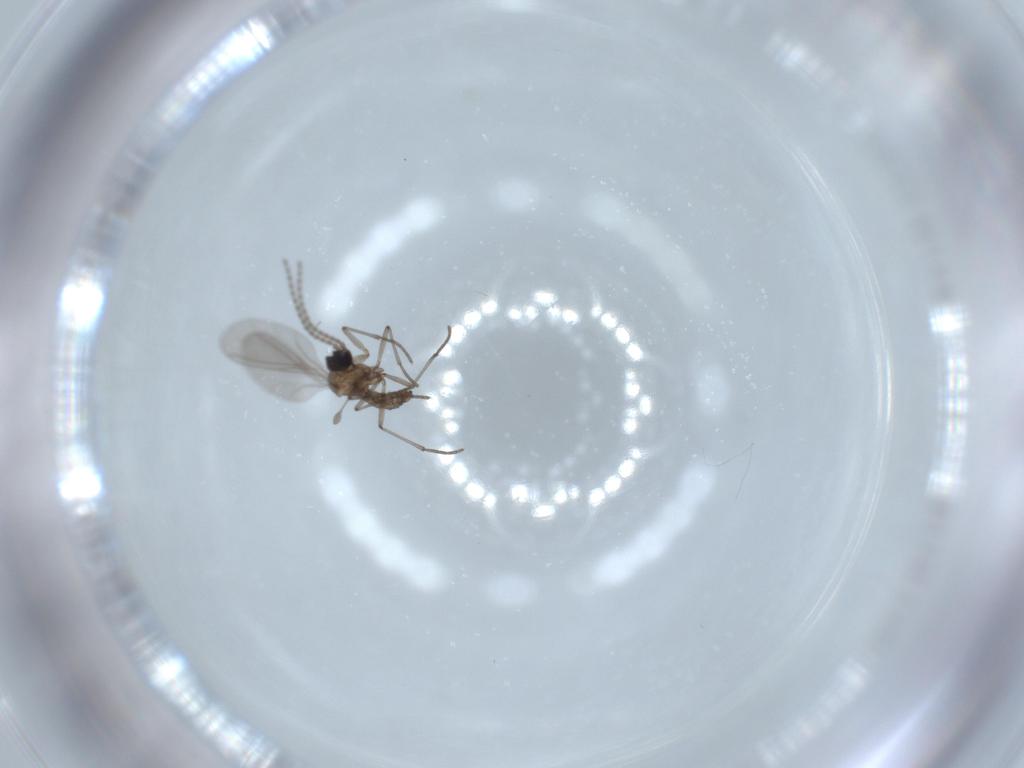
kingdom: Animalia
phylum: Arthropoda
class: Insecta
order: Diptera
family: Sciaridae
